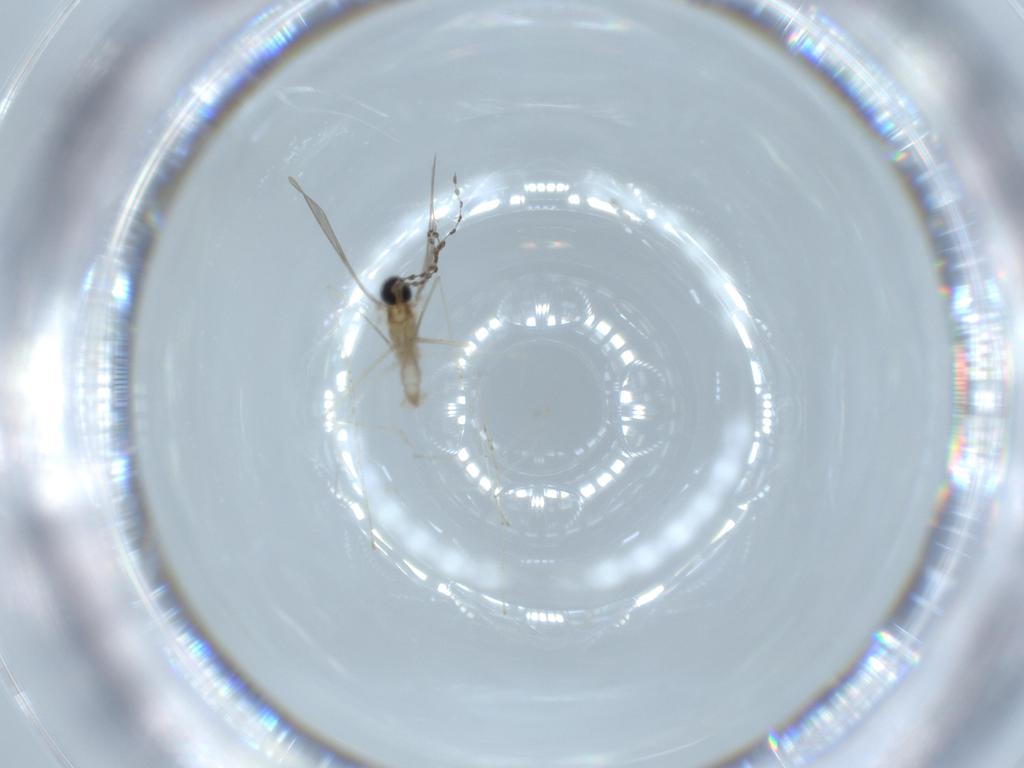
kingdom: Animalia
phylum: Arthropoda
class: Insecta
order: Diptera
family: Cecidomyiidae
